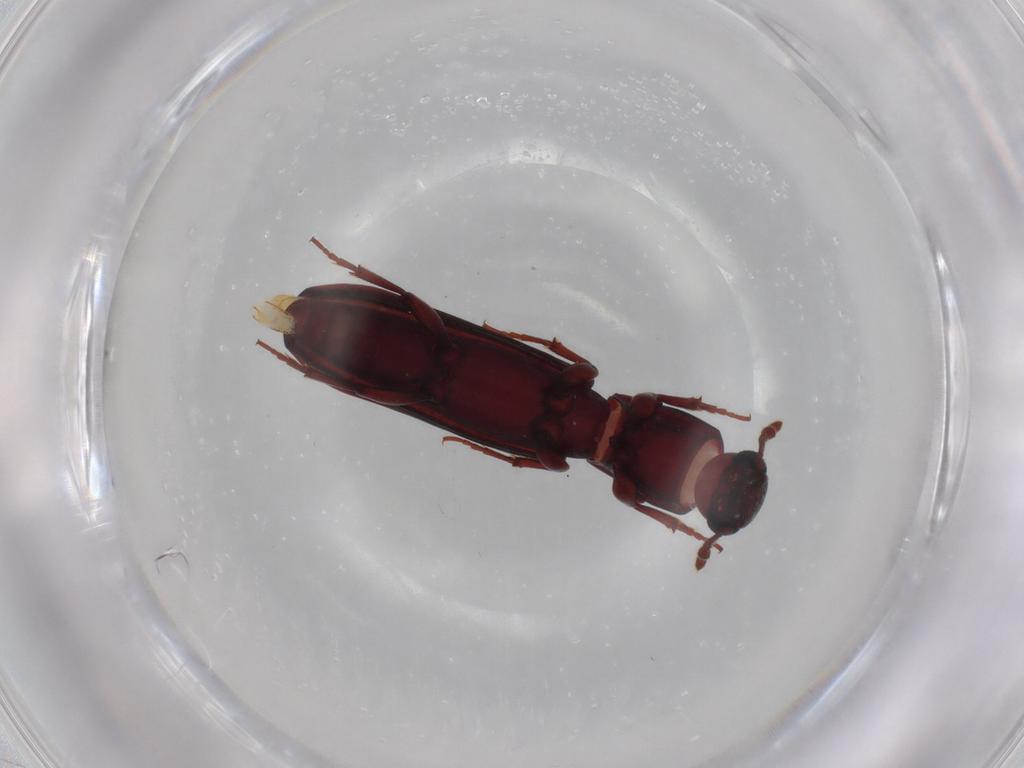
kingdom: Animalia
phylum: Arthropoda
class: Insecta
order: Coleoptera
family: Bothrideridae
